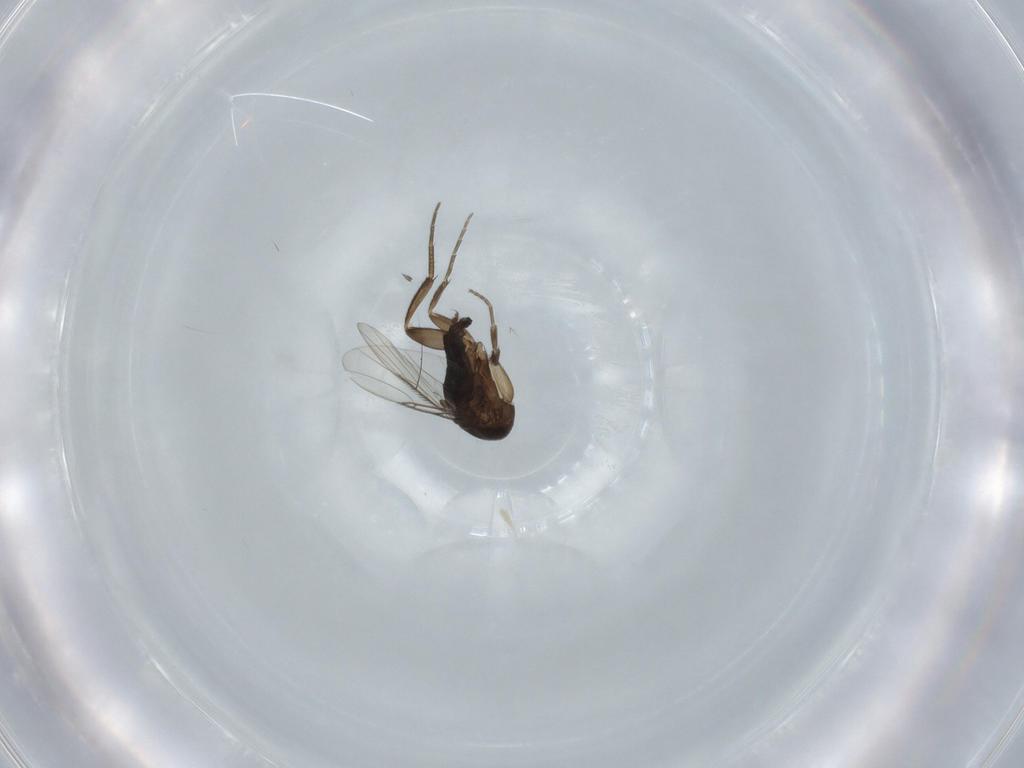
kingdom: Animalia
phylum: Arthropoda
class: Insecta
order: Diptera
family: Phoridae
